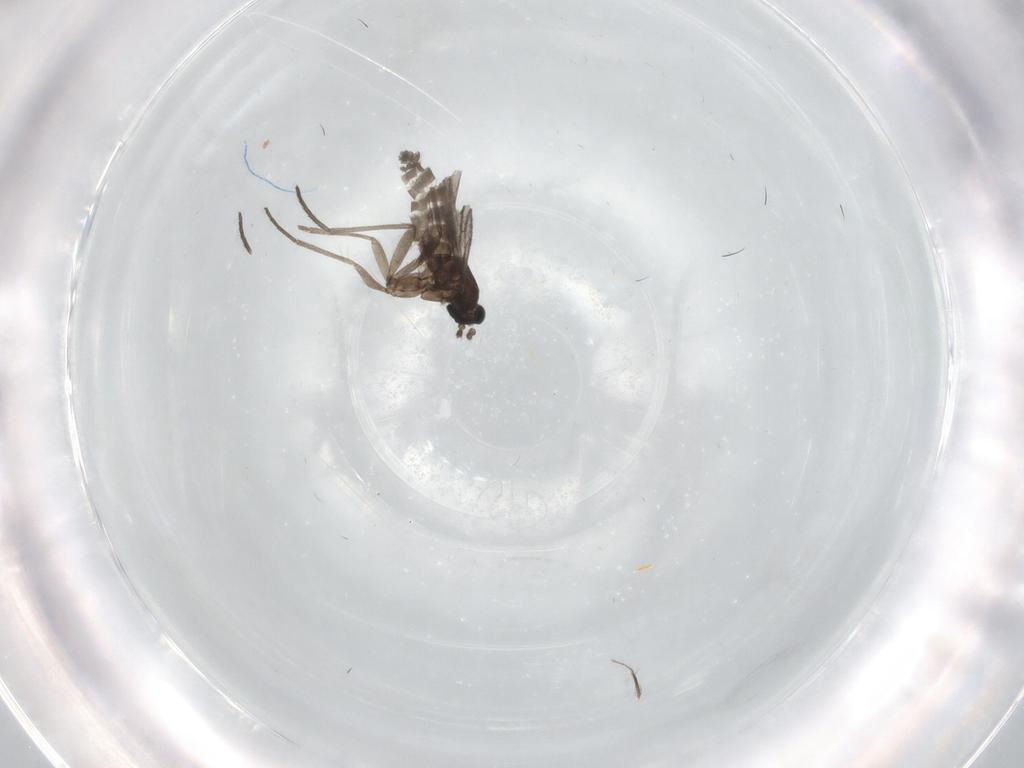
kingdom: Animalia
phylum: Arthropoda
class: Insecta
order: Diptera
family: Sciaridae
